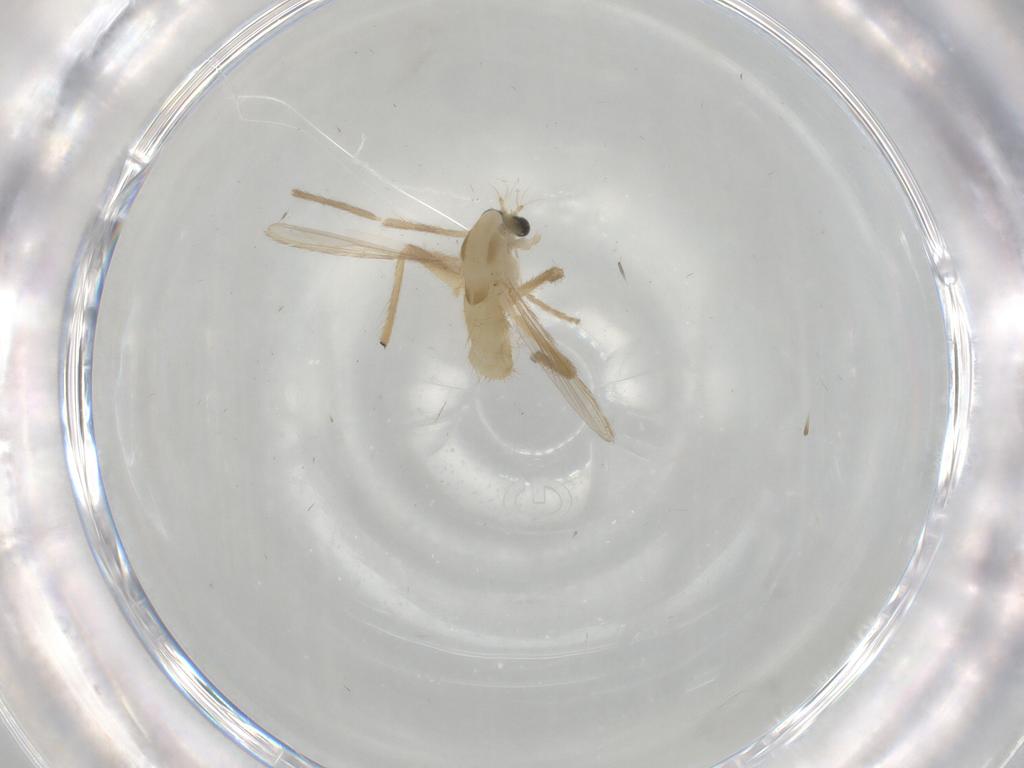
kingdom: Animalia
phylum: Arthropoda
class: Insecta
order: Diptera
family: Chironomidae
